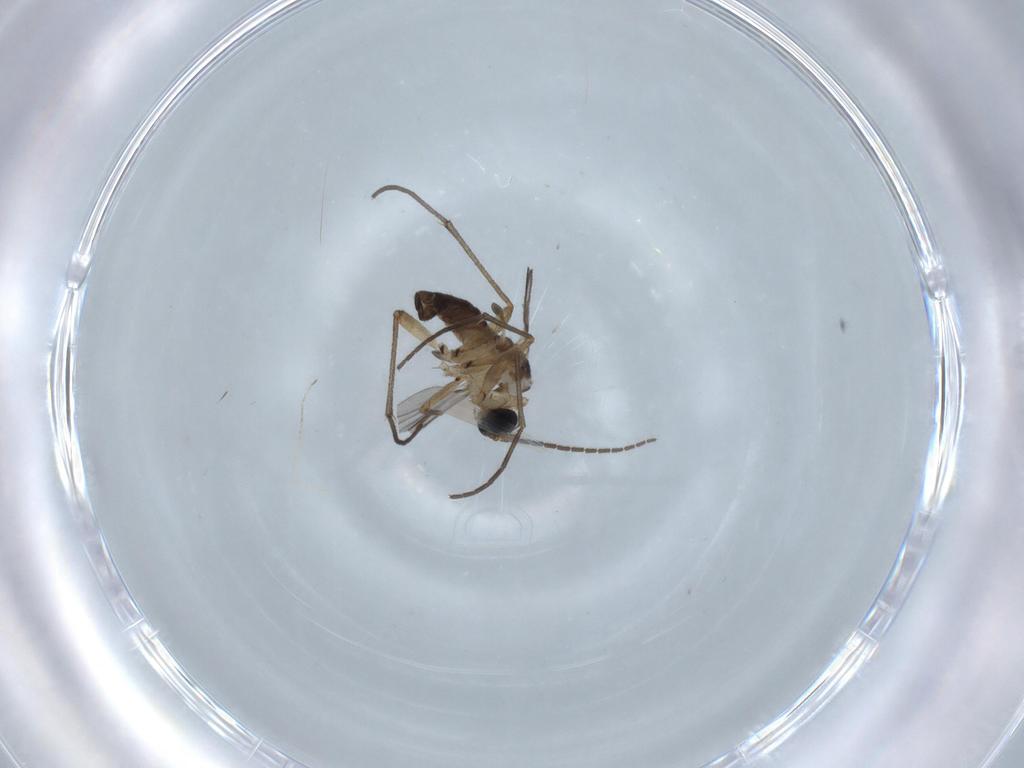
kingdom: Animalia
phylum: Arthropoda
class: Insecta
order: Diptera
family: Sciaridae
